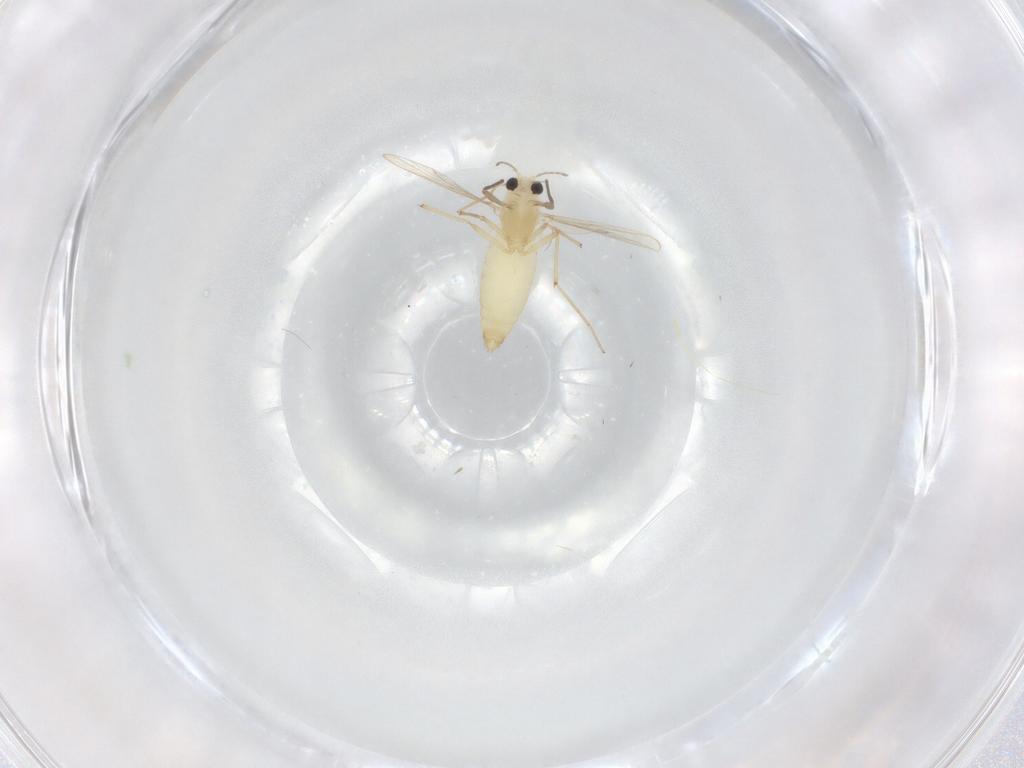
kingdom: Animalia
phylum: Arthropoda
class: Insecta
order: Diptera
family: Chironomidae
